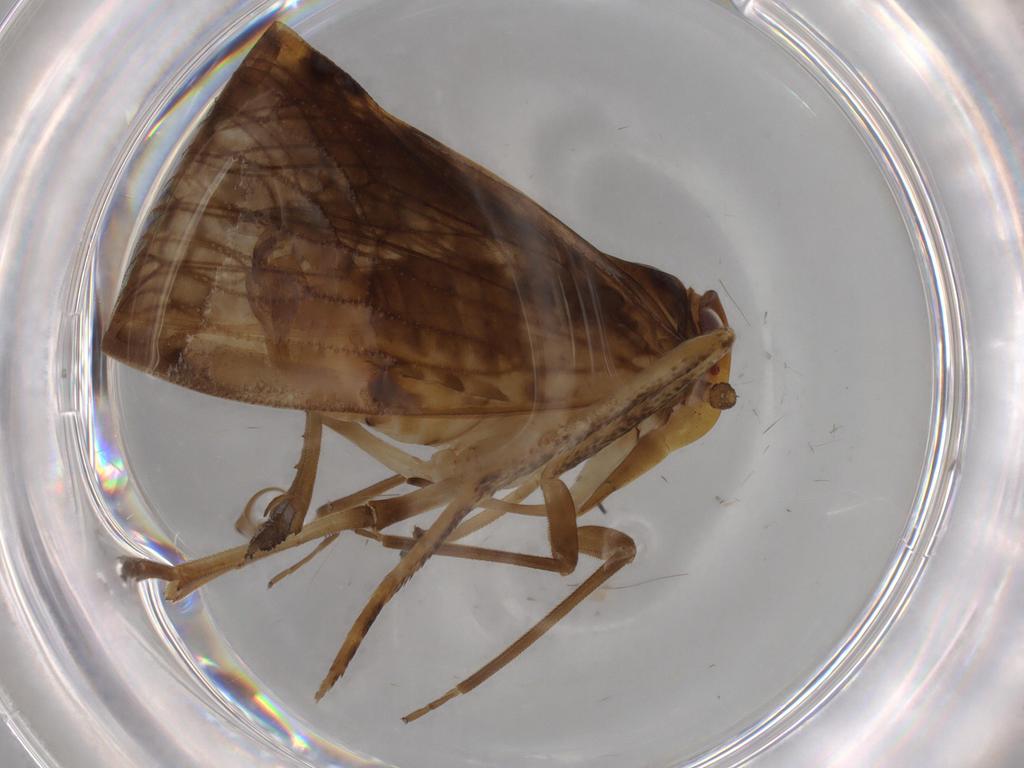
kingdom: Animalia
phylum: Arthropoda
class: Insecta
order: Hemiptera
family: Cixiidae
